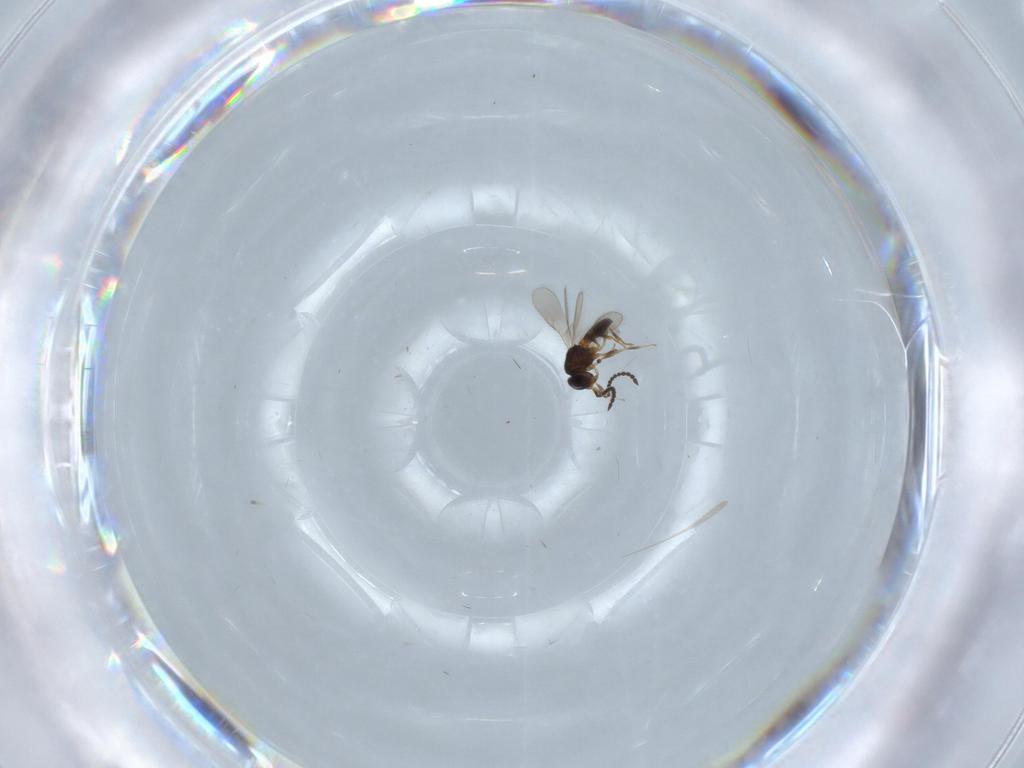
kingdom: Animalia
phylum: Arthropoda
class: Insecta
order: Hymenoptera
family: Scelionidae
